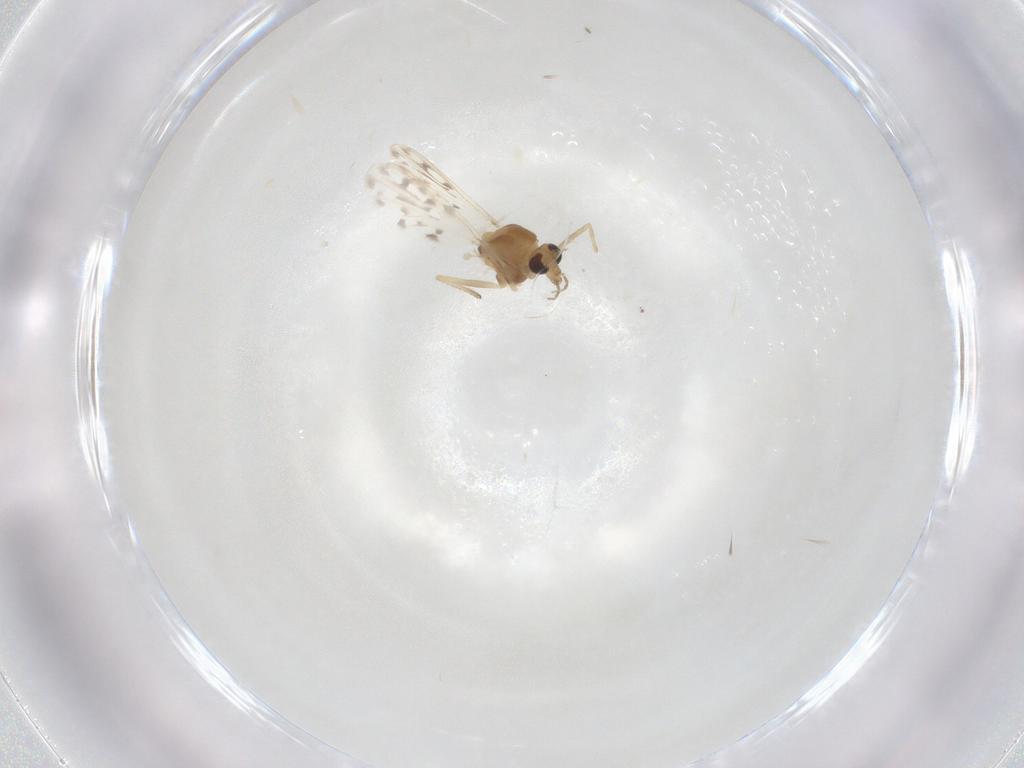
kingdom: Animalia
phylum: Arthropoda
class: Insecta
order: Diptera
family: Chironomidae
